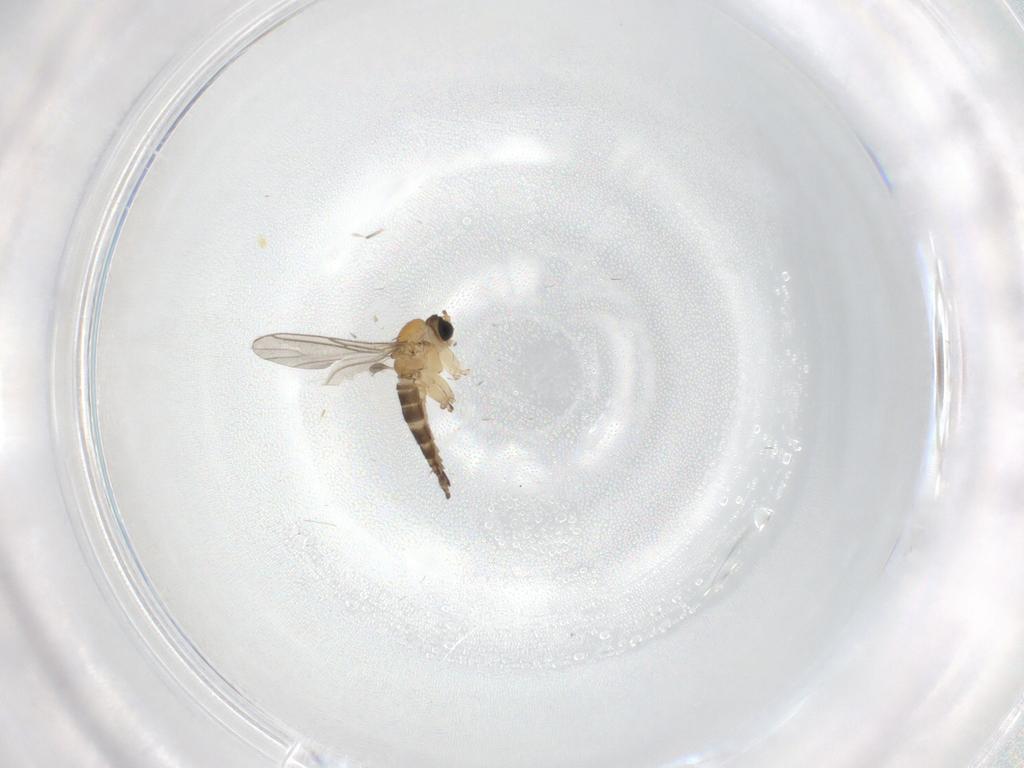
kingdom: Animalia
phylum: Arthropoda
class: Insecta
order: Diptera
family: Sciaridae
